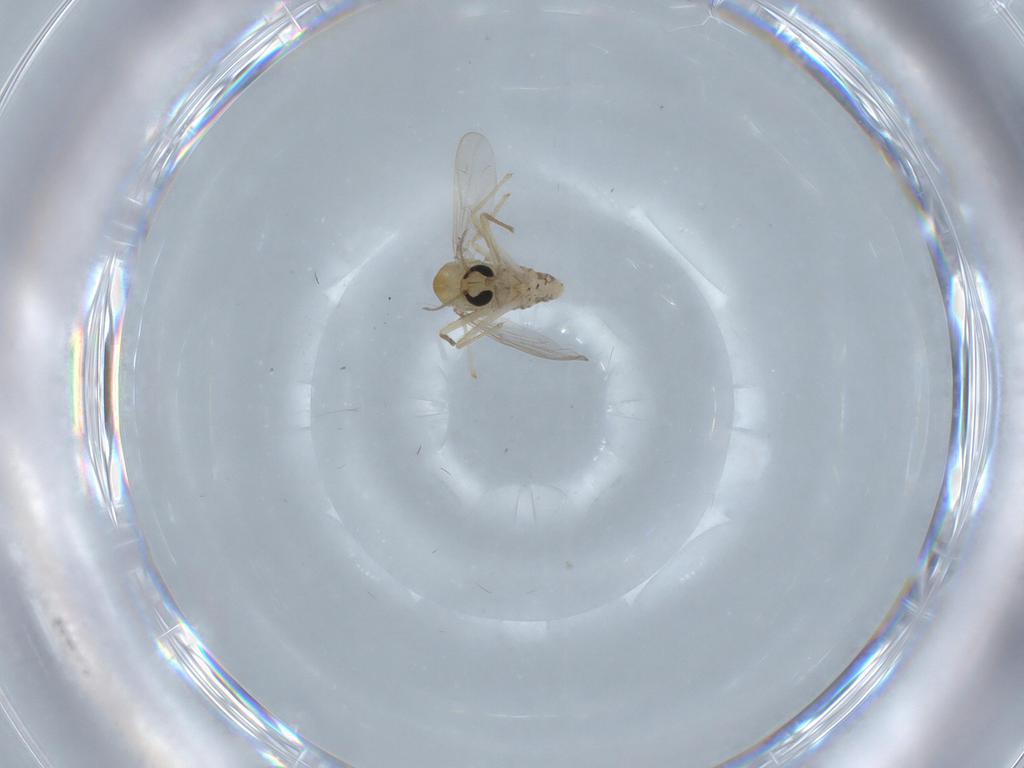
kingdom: Animalia
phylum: Arthropoda
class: Insecta
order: Diptera
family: Chironomidae
